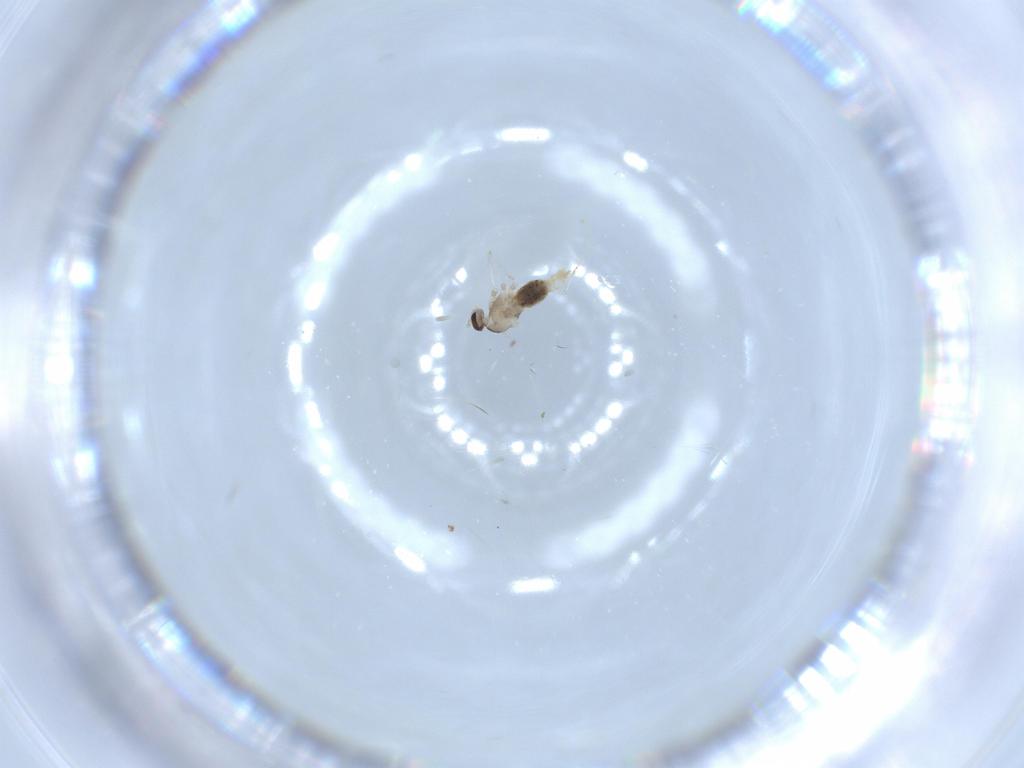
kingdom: Animalia
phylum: Arthropoda
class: Insecta
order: Diptera
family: Cecidomyiidae
